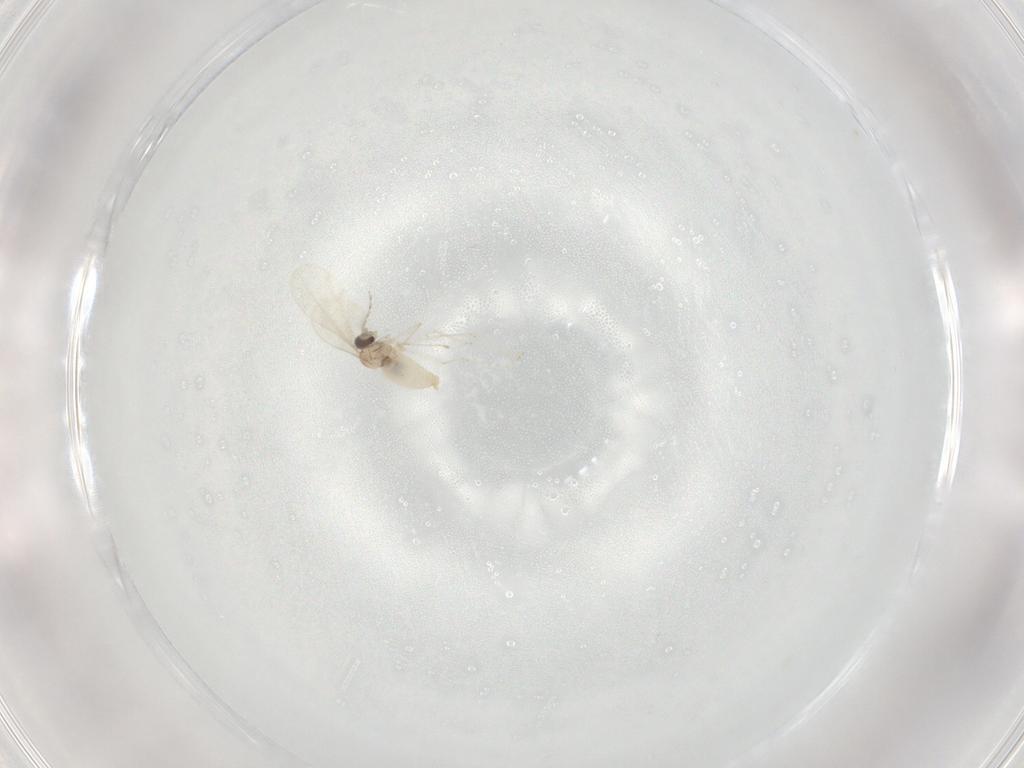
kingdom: Animalia
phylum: Arthropoda
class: Insecta
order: Diptera
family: Cecidomyiidae
